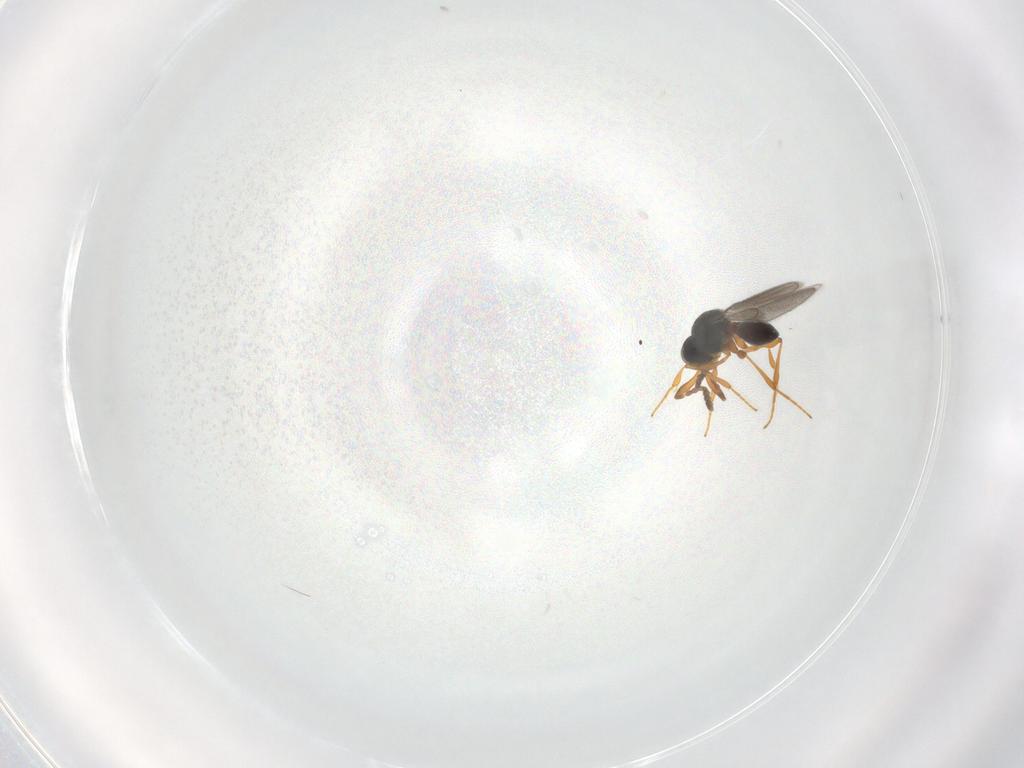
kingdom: Animalia
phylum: Arthropoda
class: Insecta
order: Hymenoptera
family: Platygastridae
